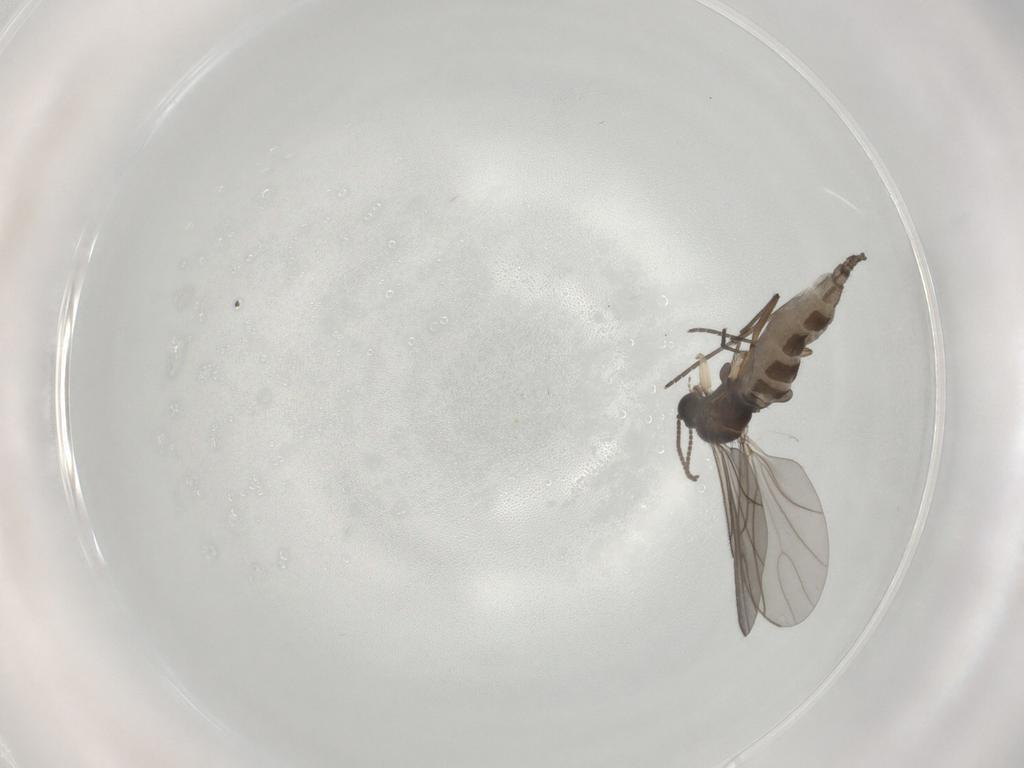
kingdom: Animalia
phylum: Arthropoda
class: Insecta
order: Diptera
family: Sciaridae
